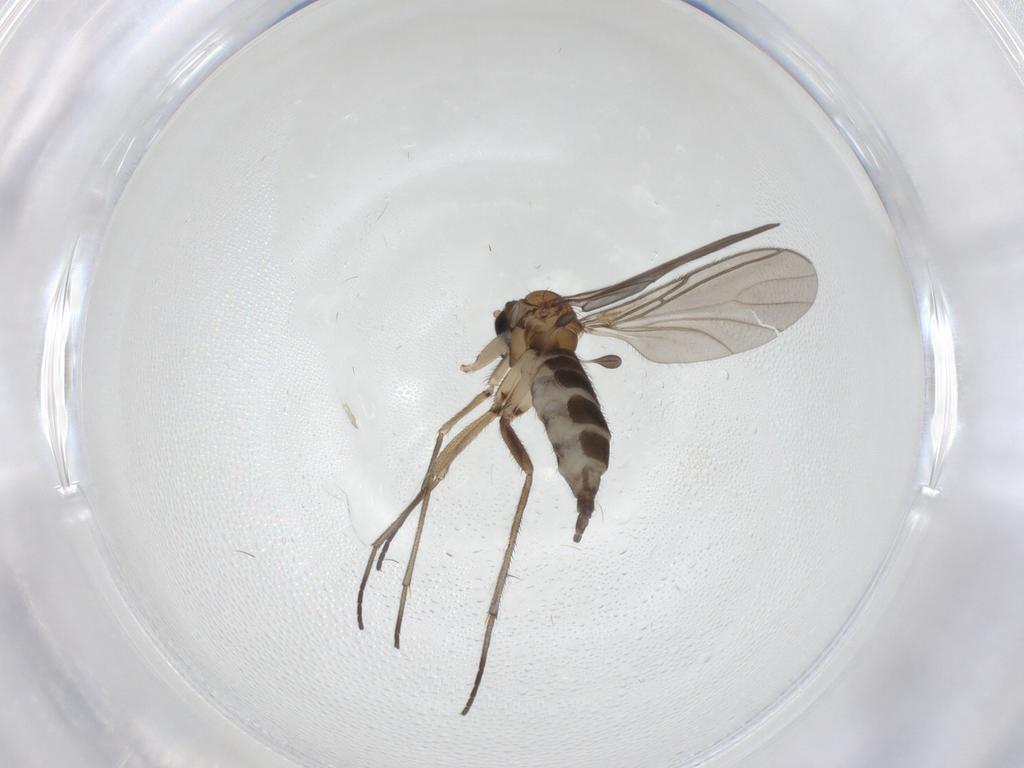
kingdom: Animalia
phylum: Arthropoda
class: Insecta
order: Diptera
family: Sciaridae
